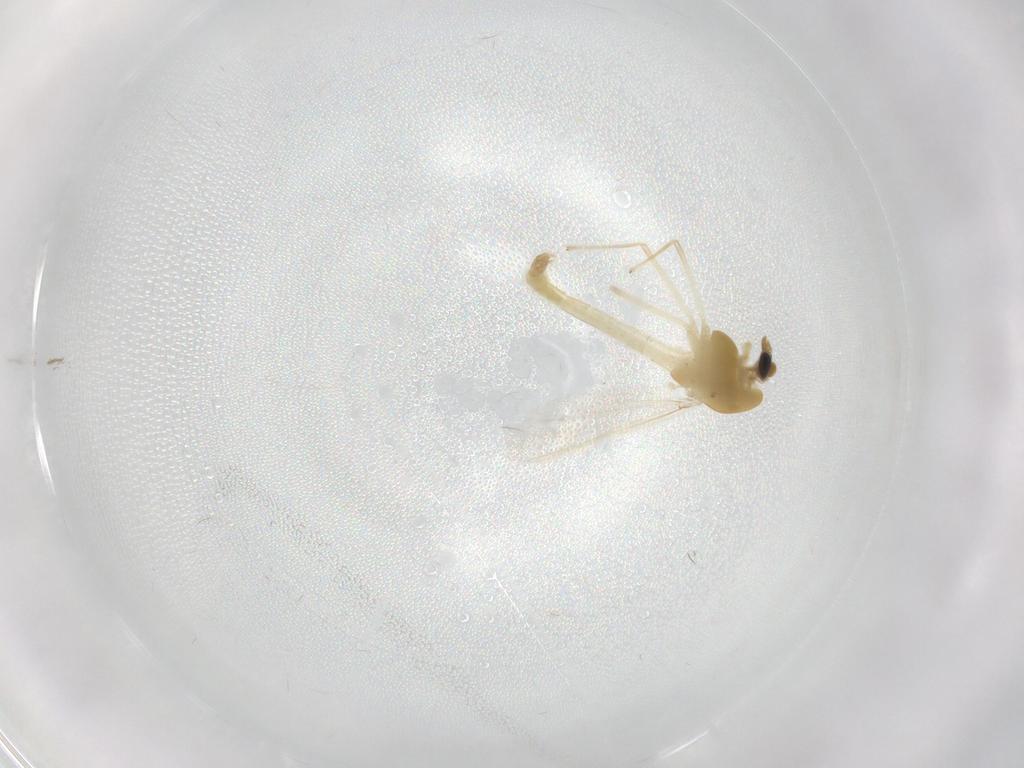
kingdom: Animalia
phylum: Arthropoda
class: Insecta
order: Diptera
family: Chironomidae
